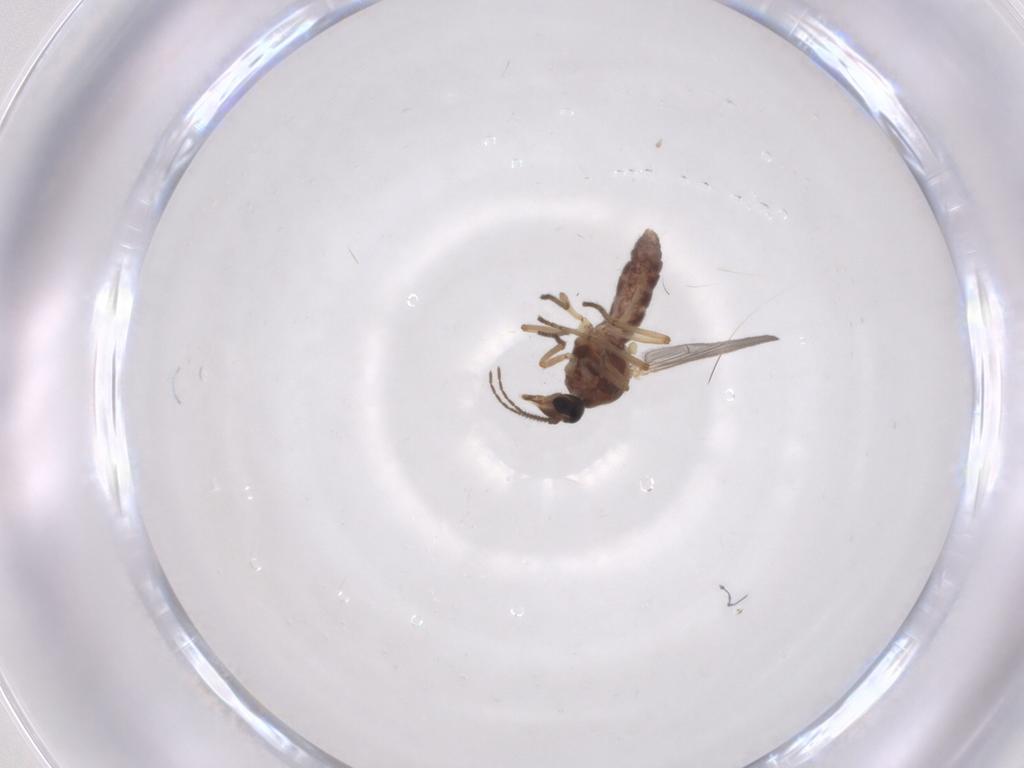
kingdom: Animalia
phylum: Arthropoda
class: Insecta
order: Diptera
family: Ceratopogonidae
